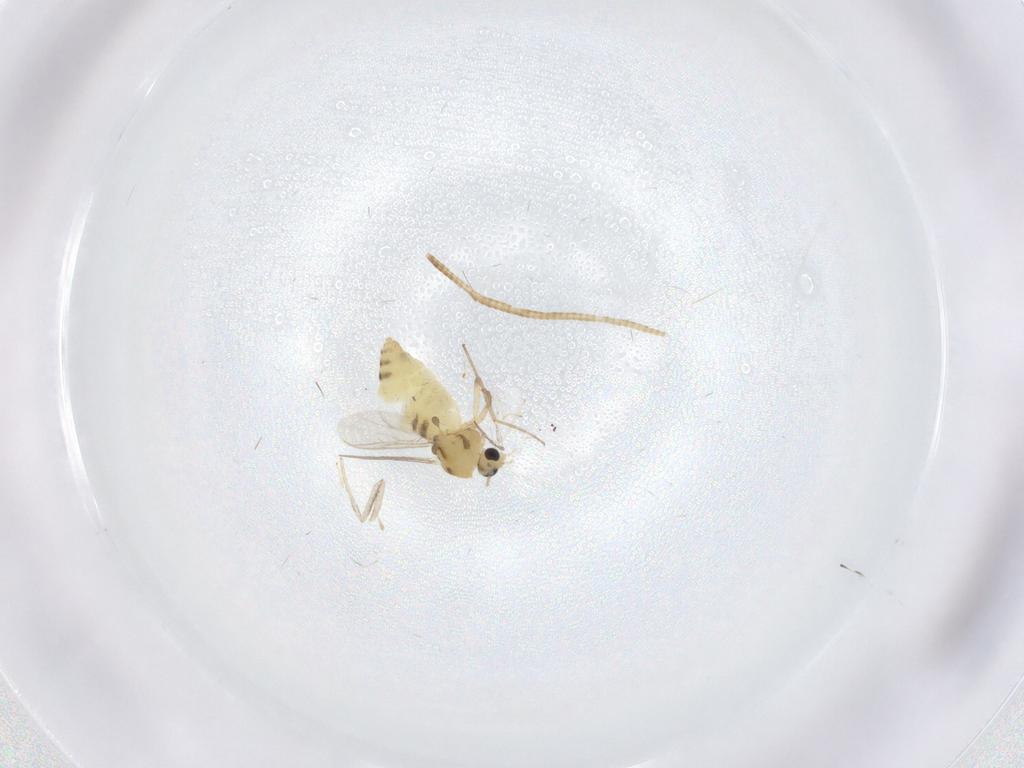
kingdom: Animalia
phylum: Arthropoda
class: Insecta
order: Diptera
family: Chironomidae
